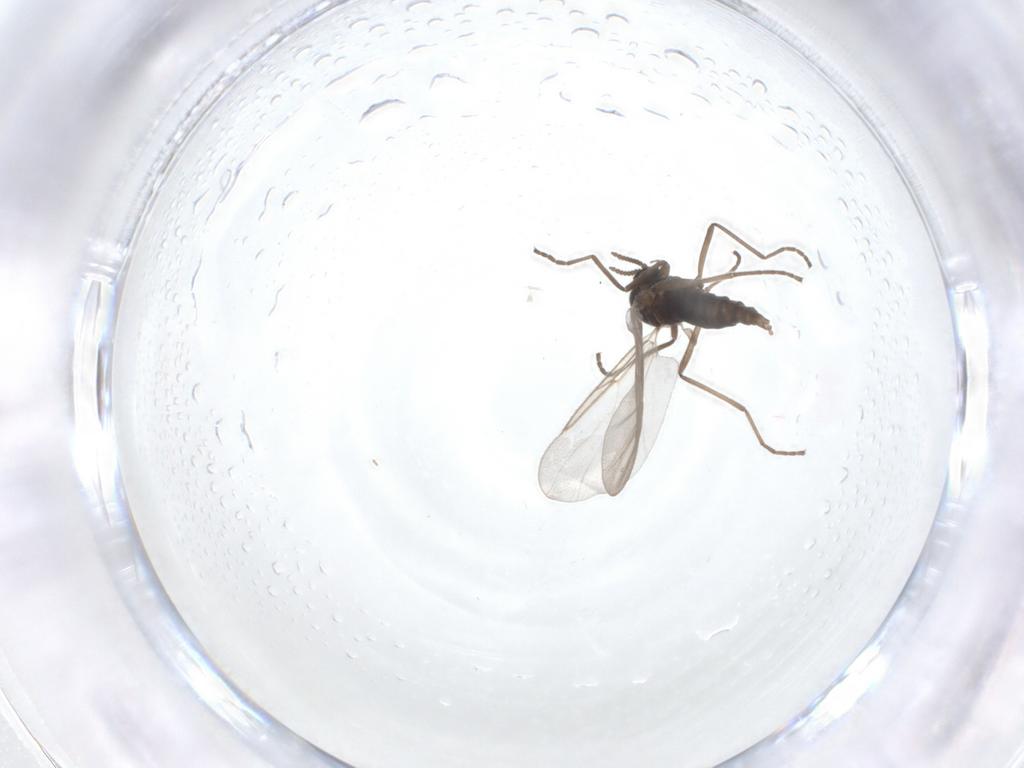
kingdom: Animalia
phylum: Arthropoda
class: Insecta
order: Diptera
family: Cecidomyiidae
